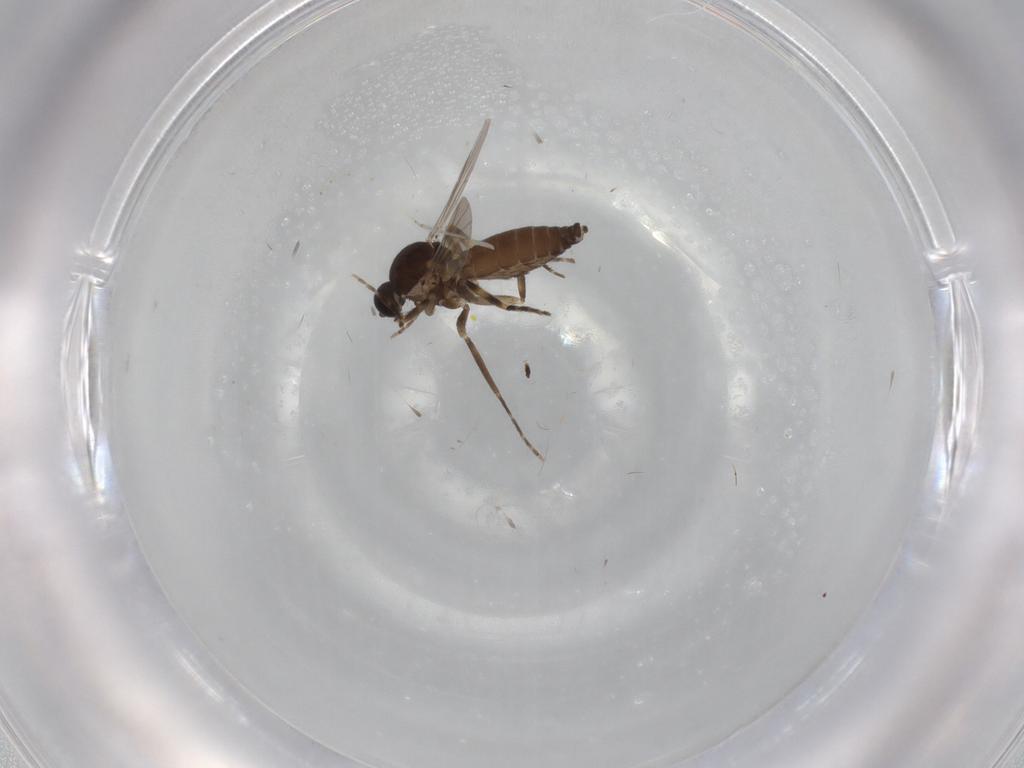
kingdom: Animalia
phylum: Arthropoda
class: Insecta
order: Diptera
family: Ceratopogonidae
